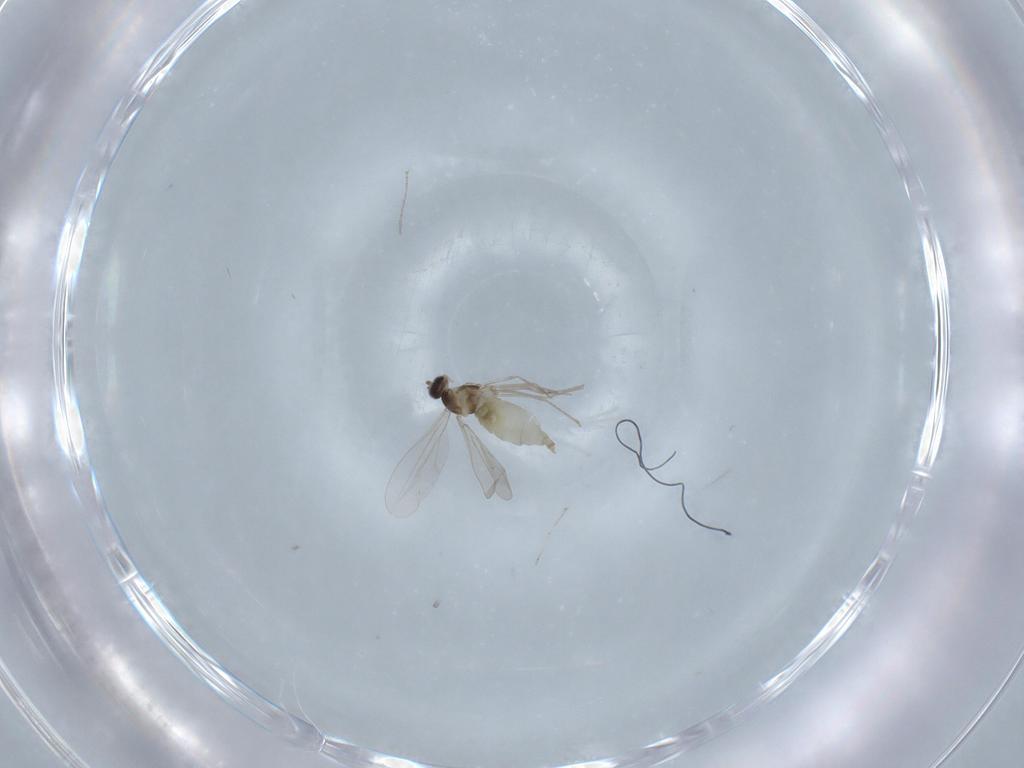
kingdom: Animalia
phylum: Arthropoda
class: Insecta
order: Diptera
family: Cecidomyiidae
